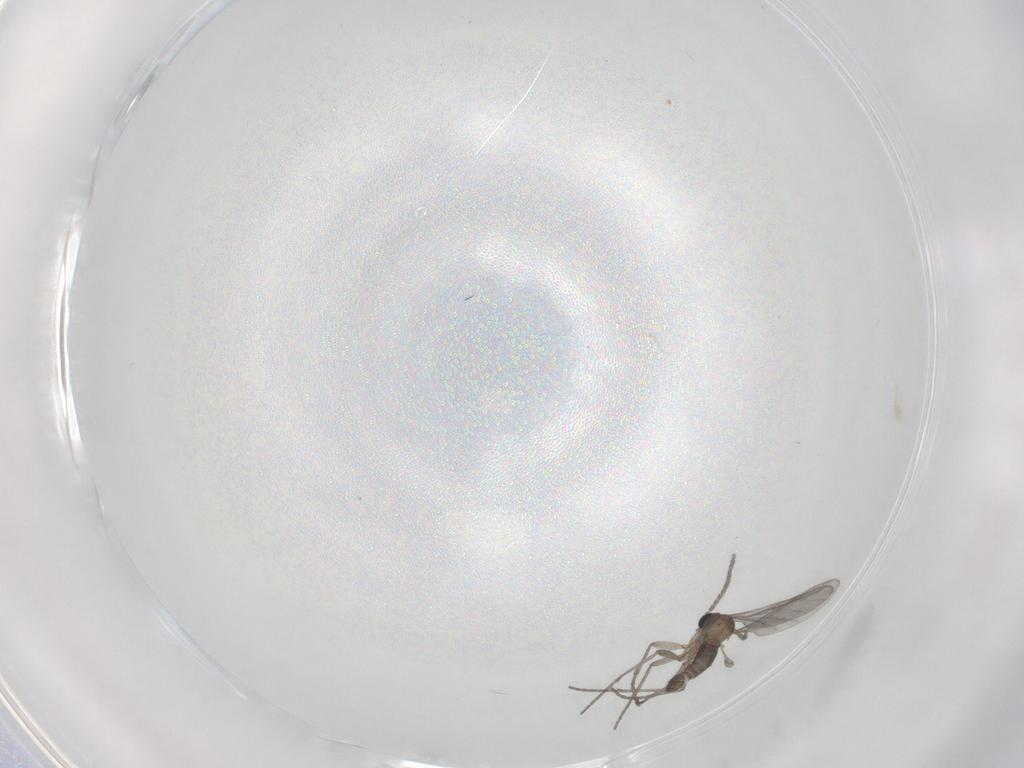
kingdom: Animalia
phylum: Arthropoda
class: Insecta
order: Diptera
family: Sciaridae
